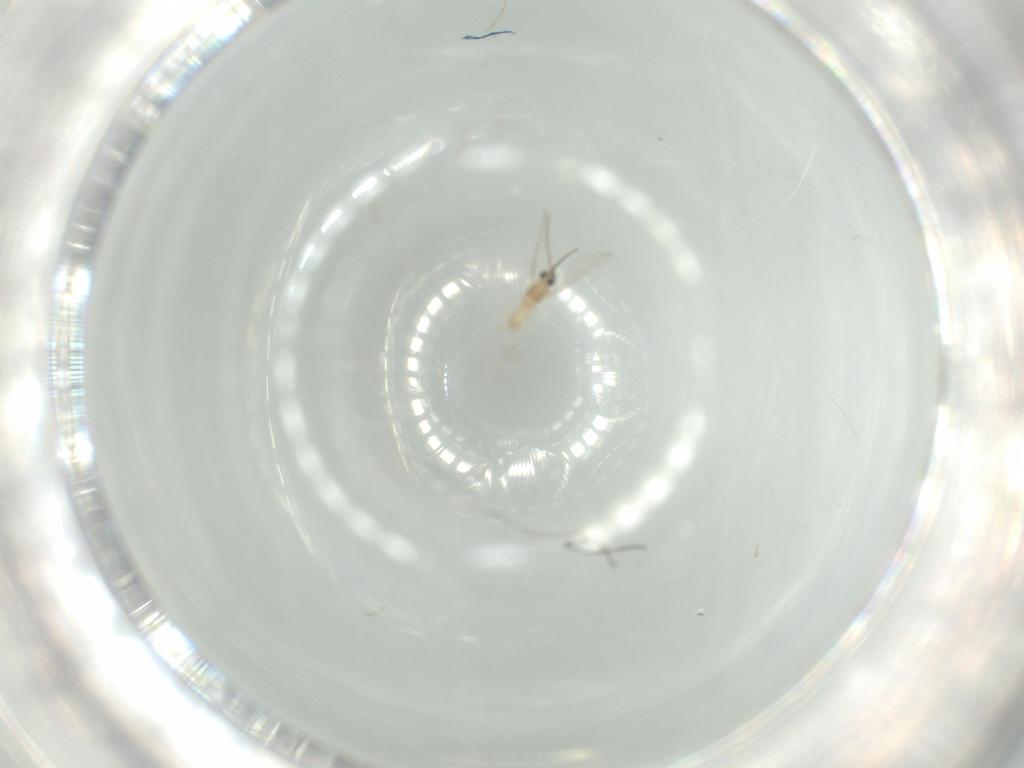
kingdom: Animalia
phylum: Arthropoda
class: Insecta
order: Diptera
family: Cecidomyiidae
